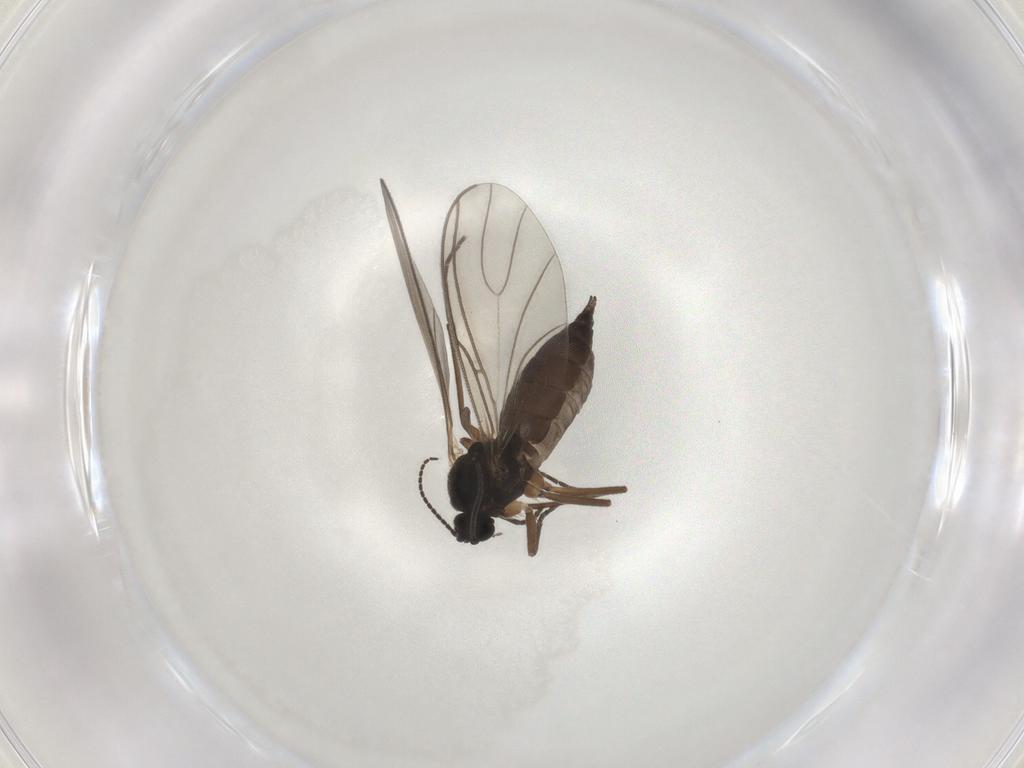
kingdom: Animalia
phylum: Arthropoda
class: Insecta
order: Diptera
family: Sciaridae
